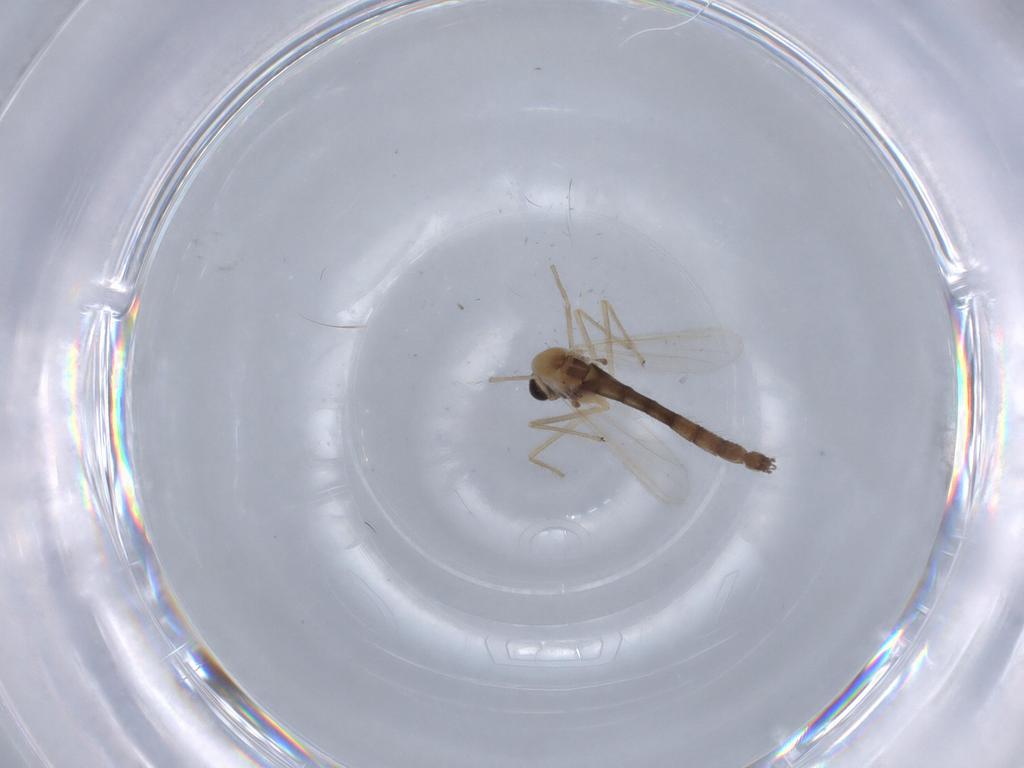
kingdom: Animalia
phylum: Arthropoda
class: Insecta
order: Diptera
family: Chironomidae
